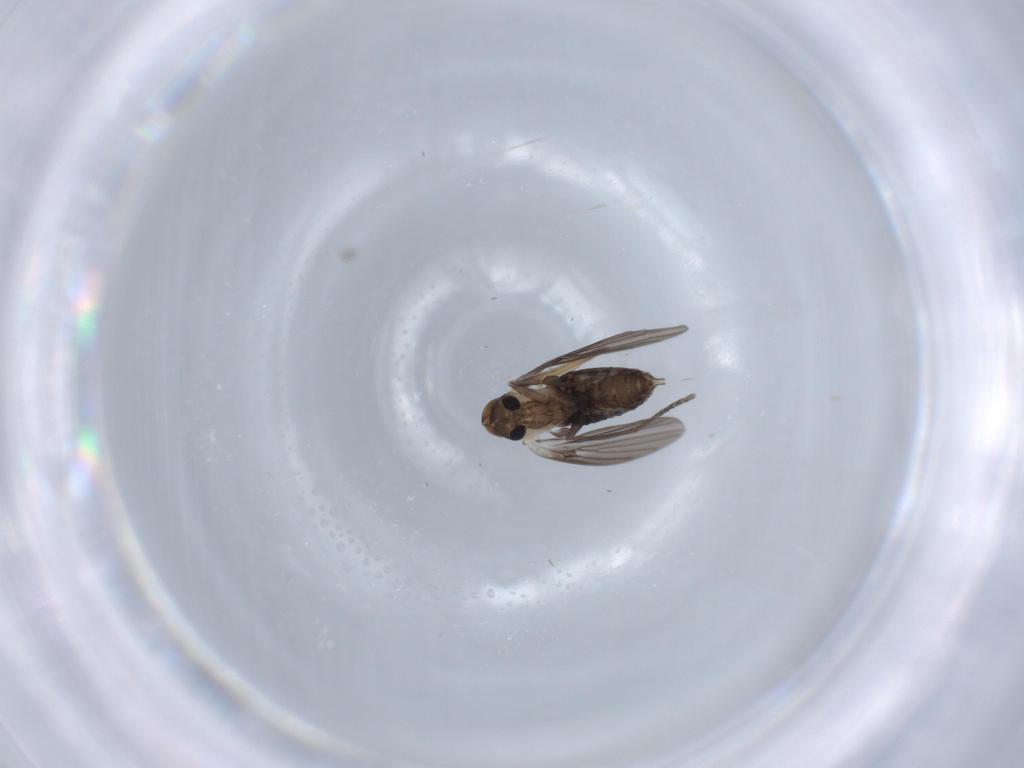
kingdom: Animalia
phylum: Arthropoda
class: Insecta
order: Diptera
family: Psychodidae
